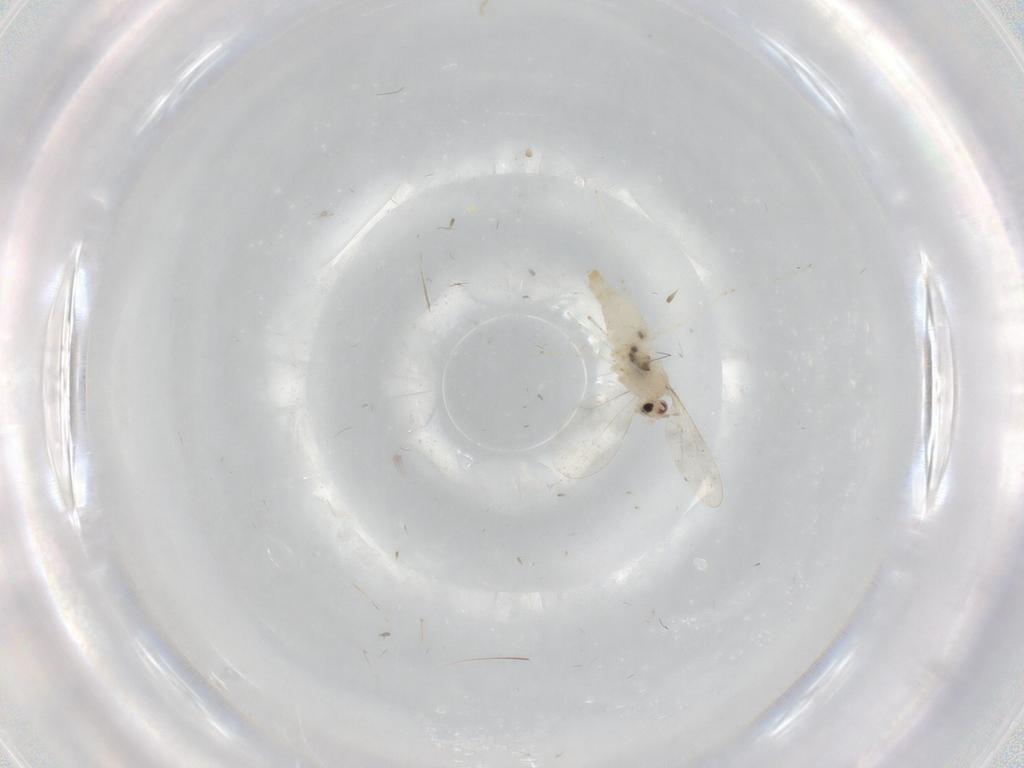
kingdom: Animalia
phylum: Arthropoda
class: Insecta
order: Diptera
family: Cecidomyiidae
